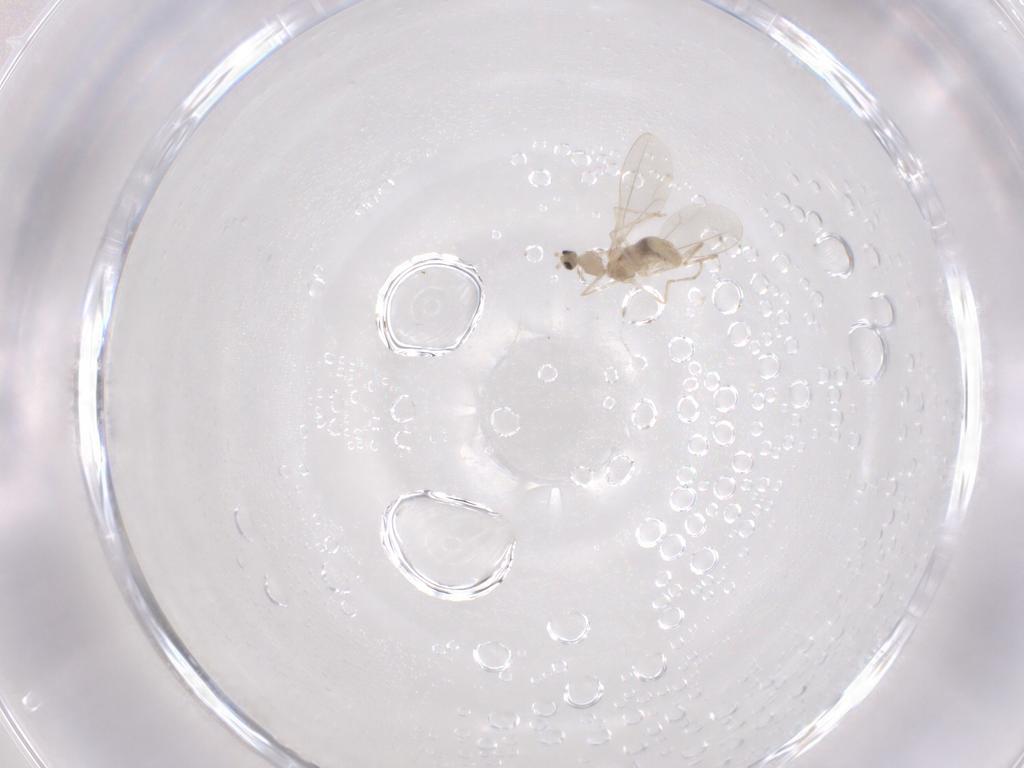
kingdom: Animalia
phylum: Arthropoda
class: Insecta
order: Diptera
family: Cecidomyiidae
